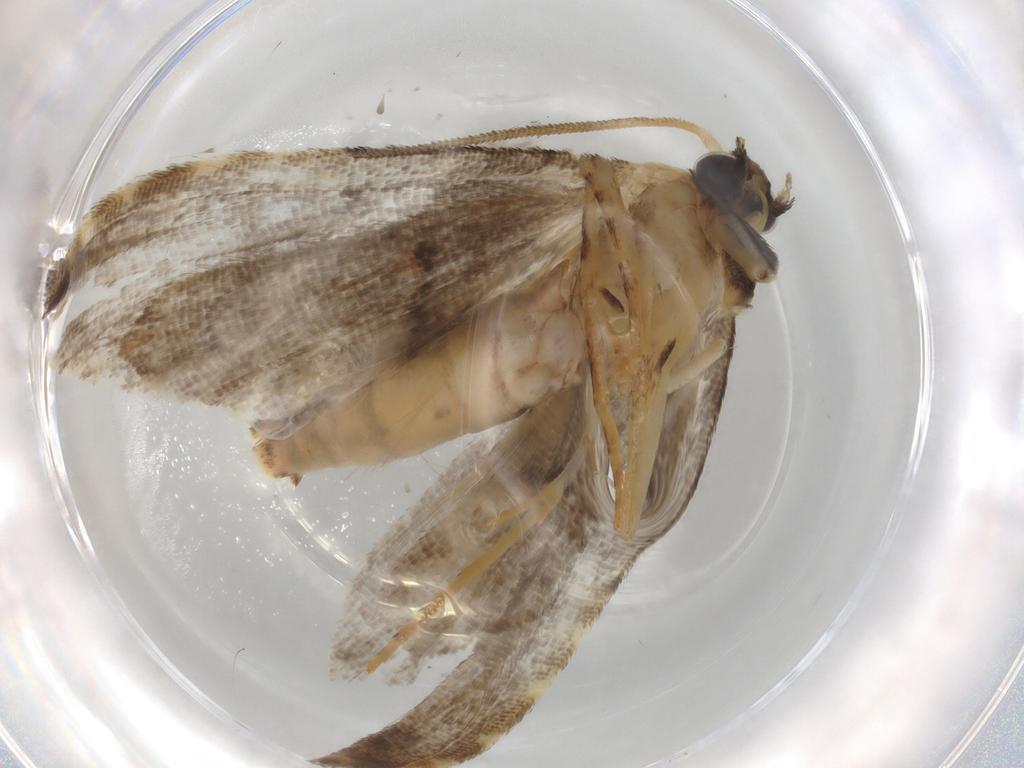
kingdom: Animalia
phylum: Arthropoda
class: Insecta
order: Lepidoptera
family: Noctuidae
